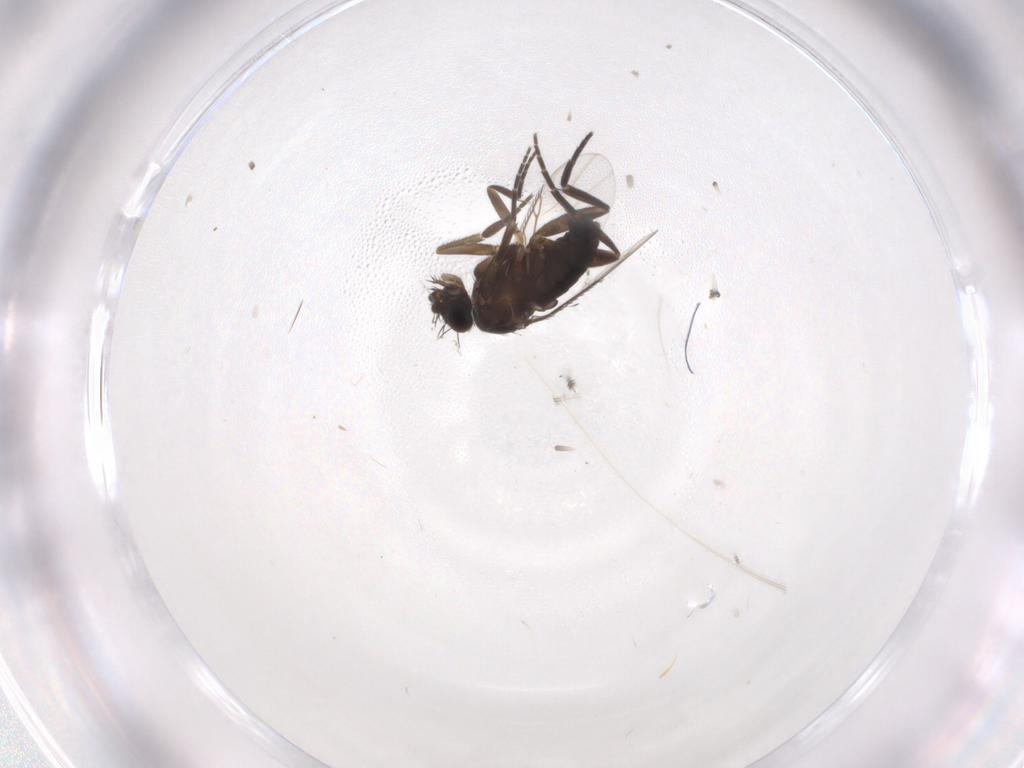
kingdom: Animalia
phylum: Arthropoda
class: Insecta
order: Diptera
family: Phoridae
